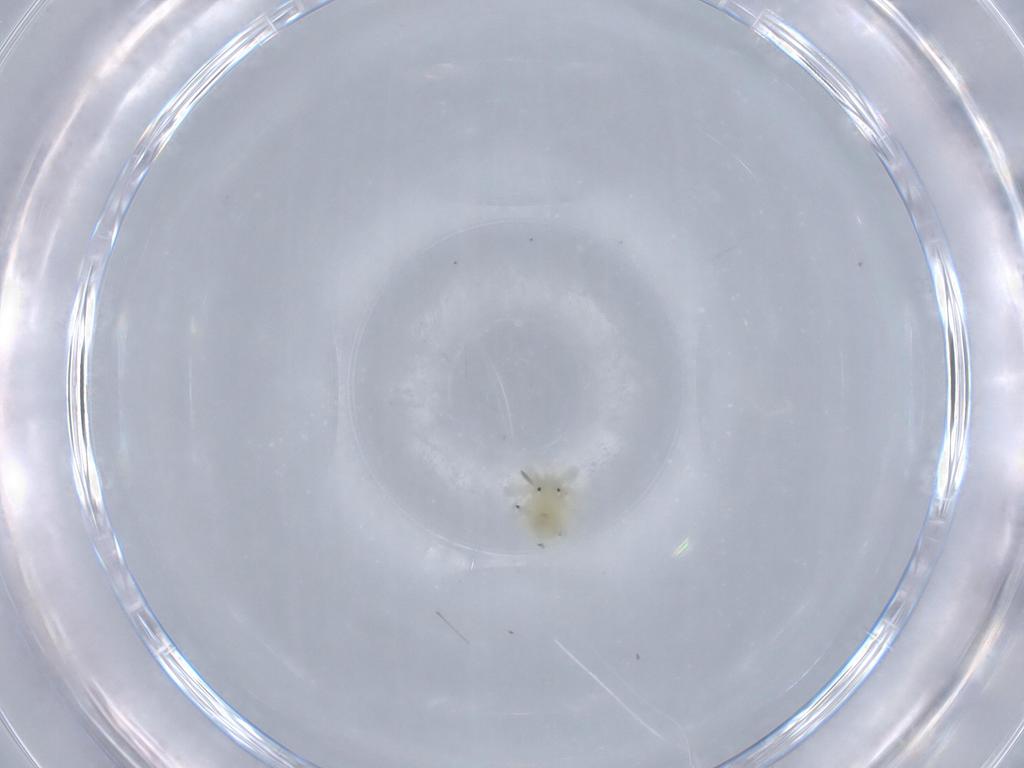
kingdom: Animalia
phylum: Arthropoda
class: Arachnida
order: Trombidiformes
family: Anystidae
